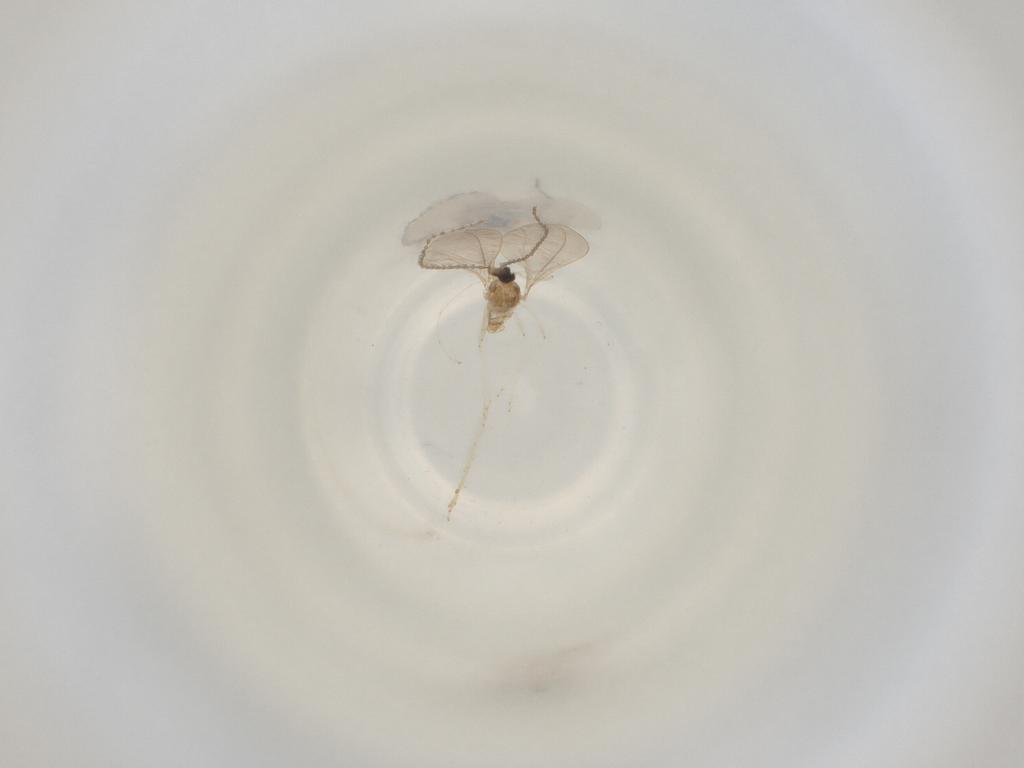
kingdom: Animalia
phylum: Arthropoda
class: Insecta
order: Diptera
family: Cecidomyiidae
